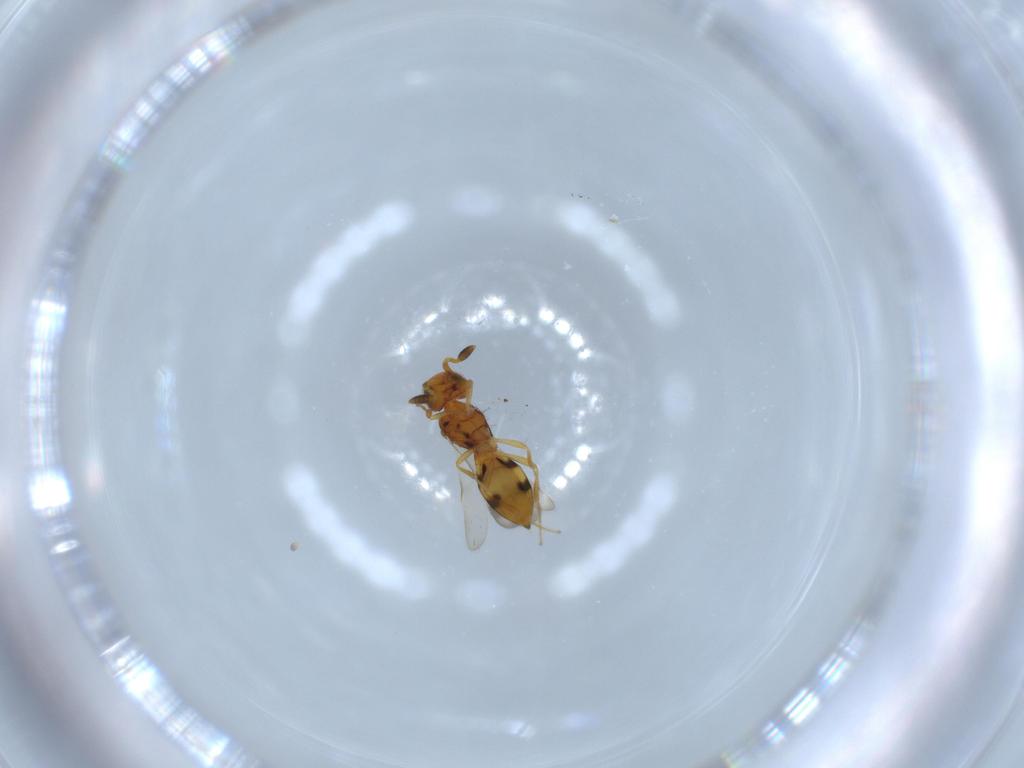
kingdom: Animalia
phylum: Arthropoda
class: Insecta
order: Hymenoptera
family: Scelionidae
